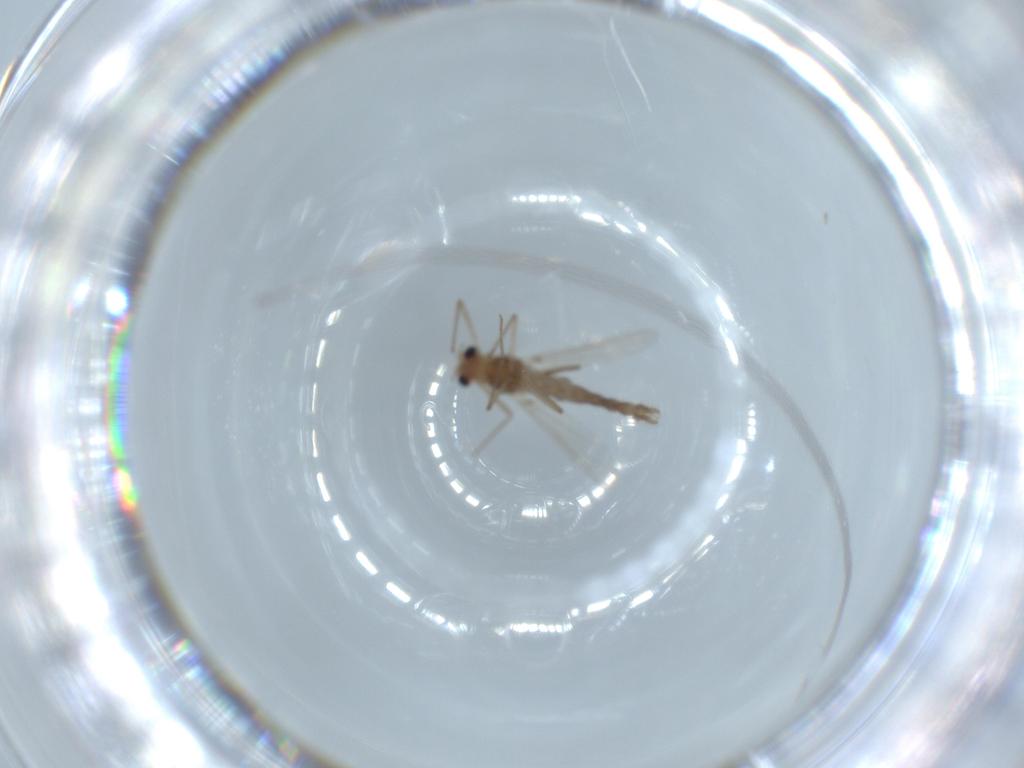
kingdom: Animalia
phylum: Arthropoda
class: Insecta
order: Diptera
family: Chironomidae
